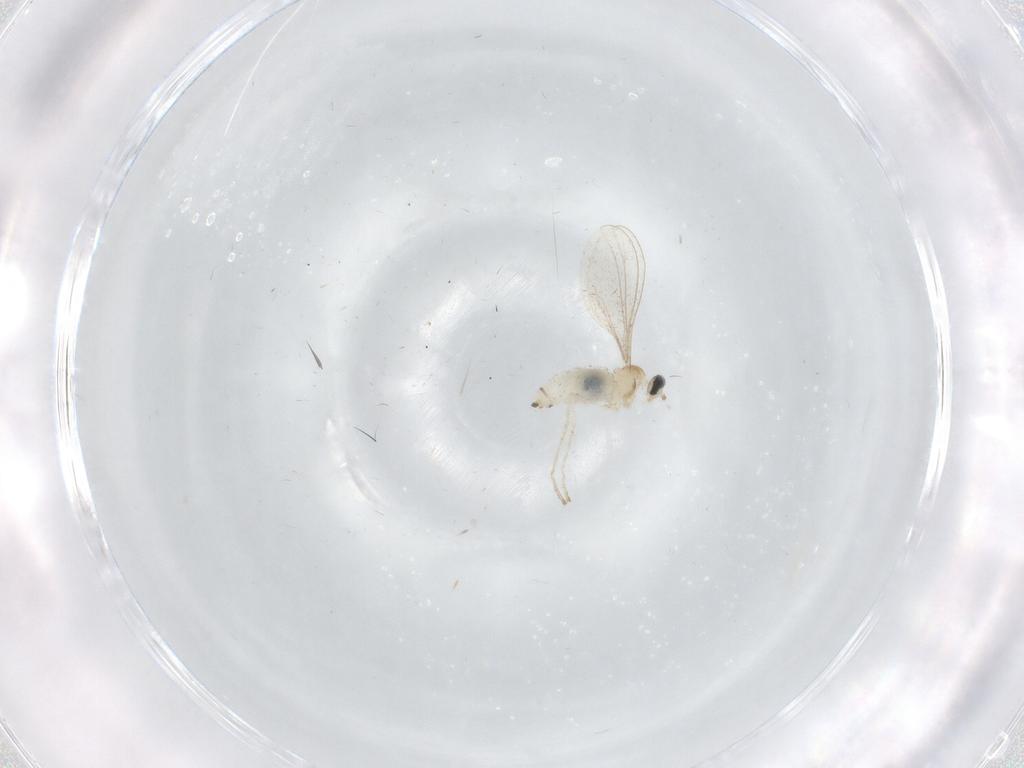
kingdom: Animalia
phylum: Arthropoda
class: Insecta
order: Diptera
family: Cecidomyiidae
